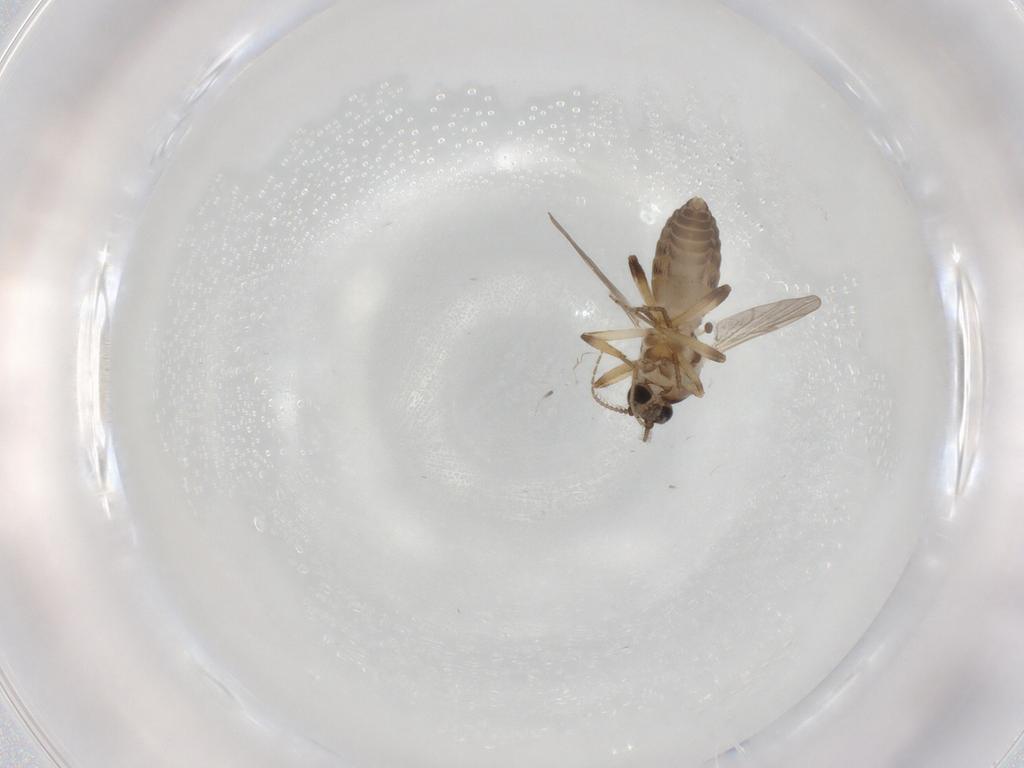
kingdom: Animalia
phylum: Arthropoda
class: Insecta
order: Diptera
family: Ceratopogonidae
